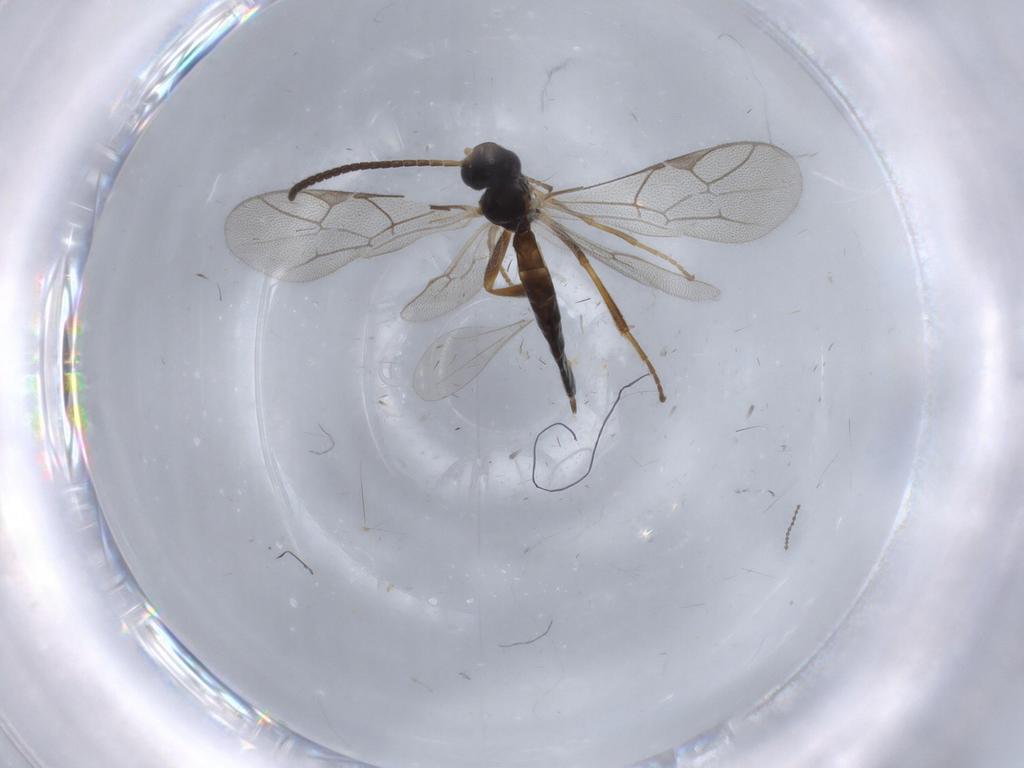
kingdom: Animalia
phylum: Arthropoda
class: Insecta
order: Hymenoptera
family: Ichneumonidae
